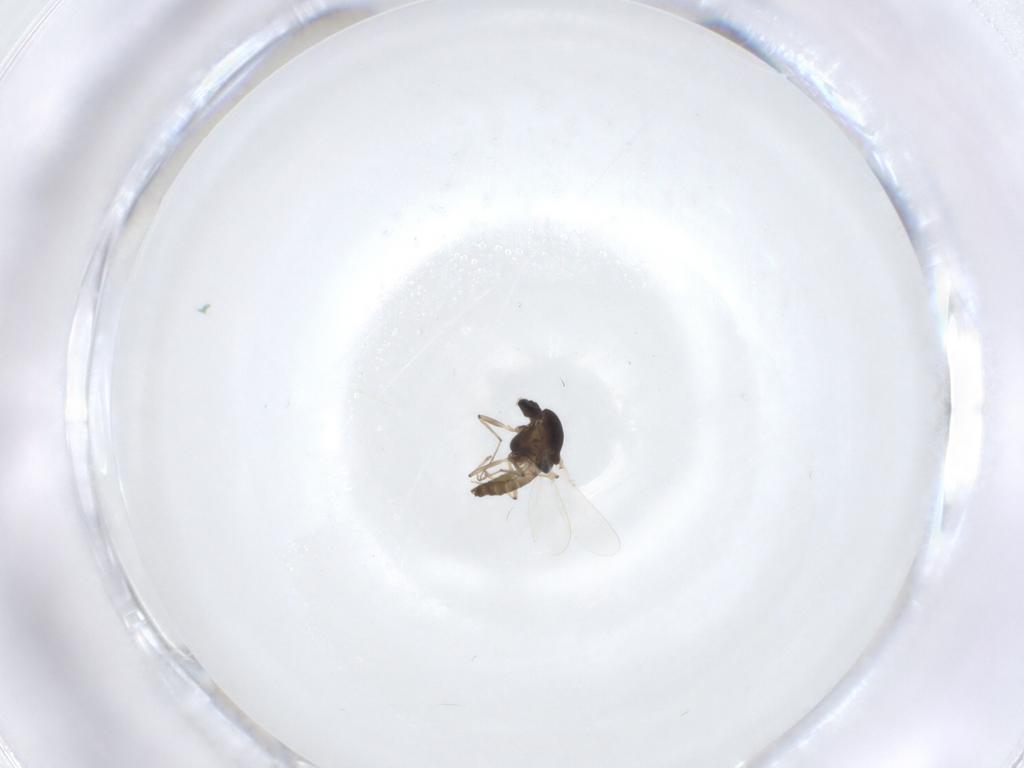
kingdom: Animalia
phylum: Arthropoda
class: Insecta
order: Diptera
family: Chironomidae
